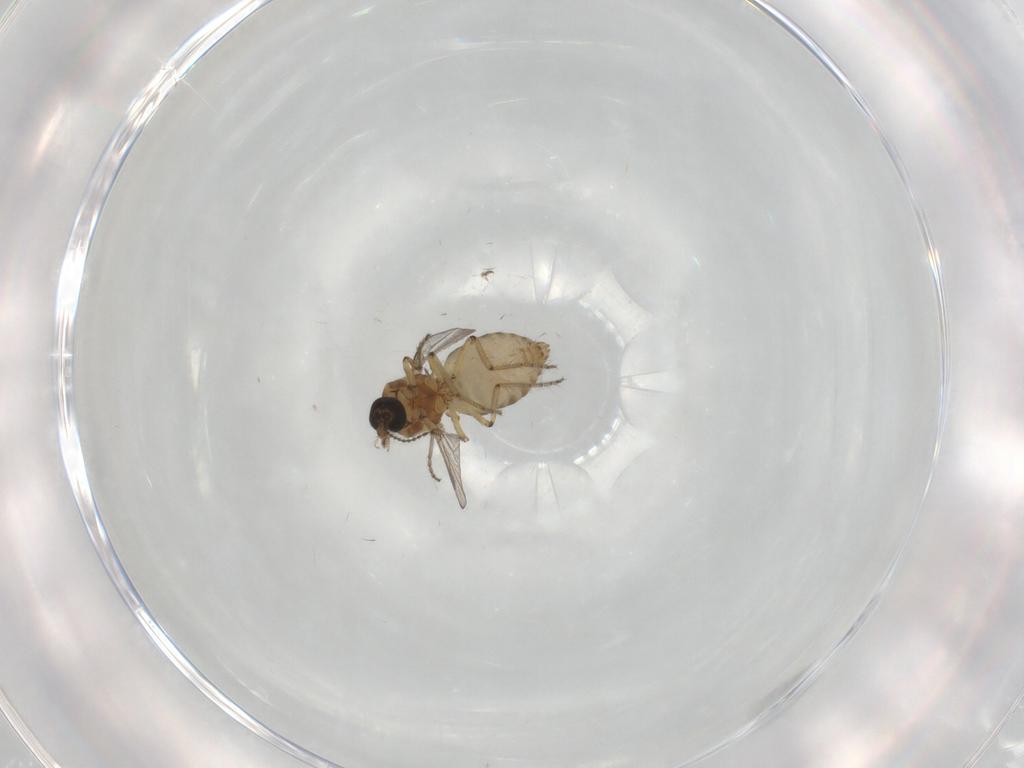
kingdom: Animalia
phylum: Arthropoda
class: Insecta
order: Diptera
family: Ceratopogonidae
